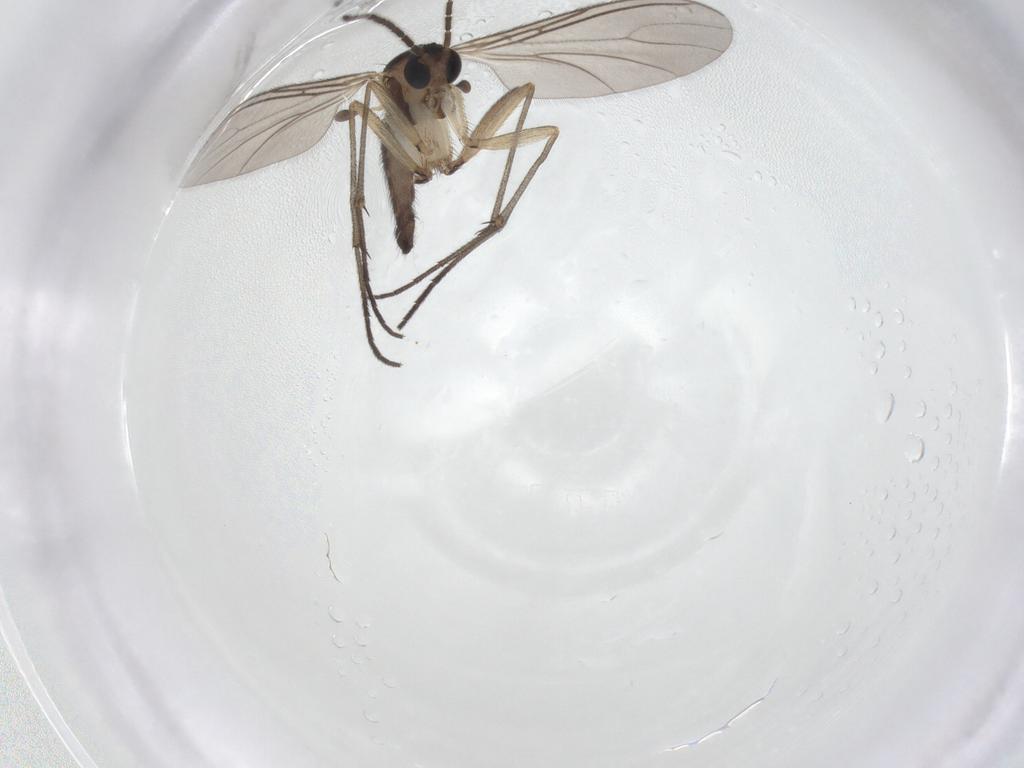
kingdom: Animalia
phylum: Arthropoda
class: Insecta
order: Diptera
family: Sciaridae
